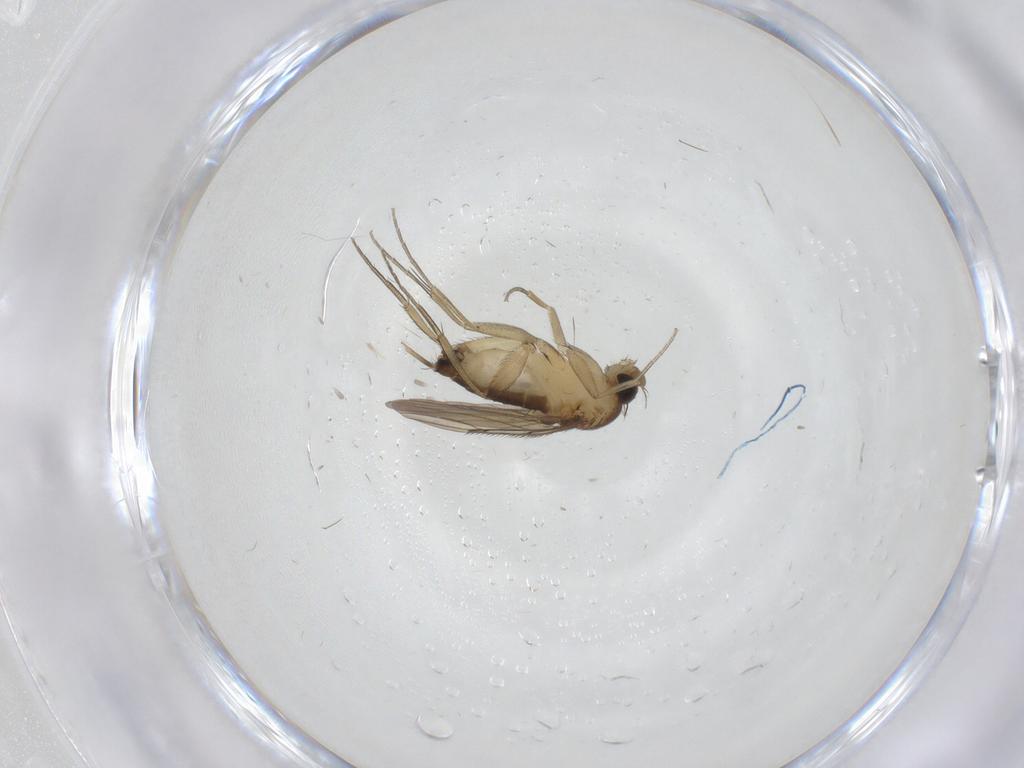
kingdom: Animalia
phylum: Arthropoda
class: Insecta
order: Diptera
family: Phoridae
